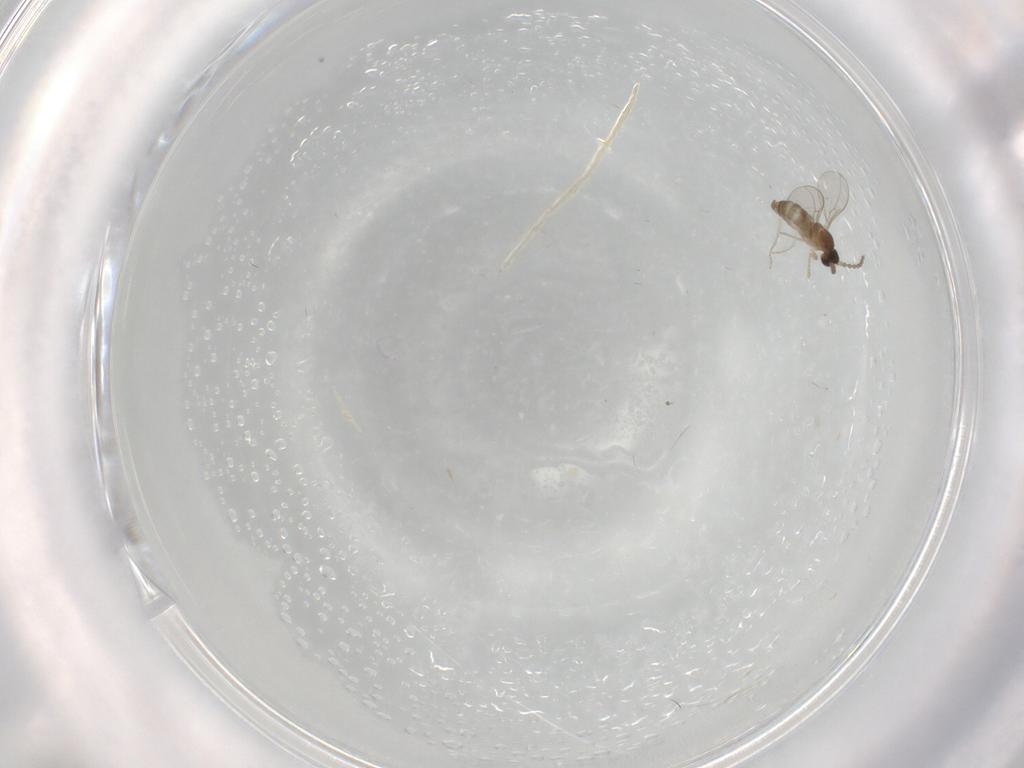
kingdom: Animalia
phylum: Arthropoda
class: Insecta
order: Diptera
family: Cecidomyiidae
